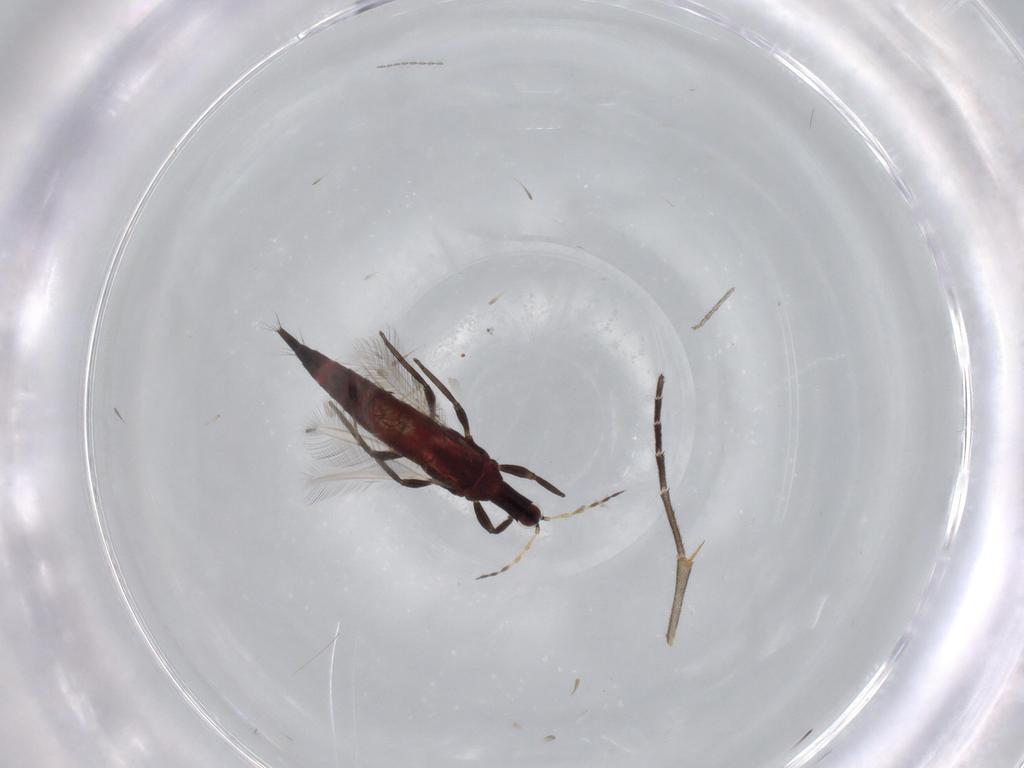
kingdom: Animalia
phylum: Arthropoda
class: Insecta
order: Thysanoptera
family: Phlaeothripidae
